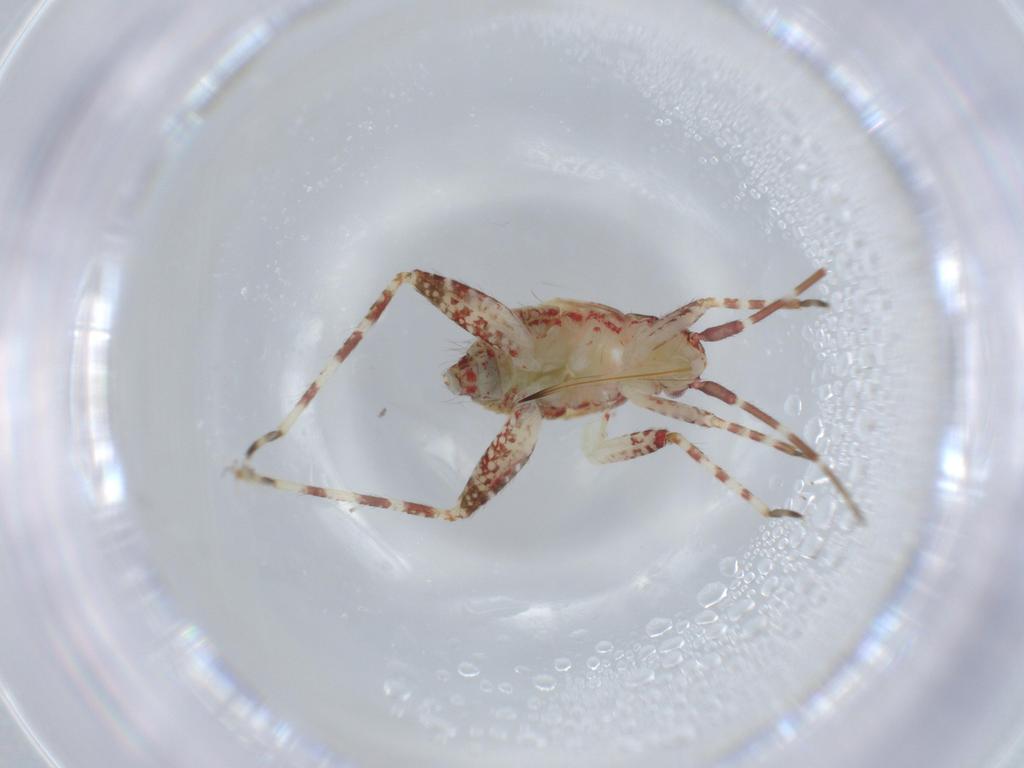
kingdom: Animalia
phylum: Arthropoda
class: Insecta
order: Hemiptera
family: Miridae
